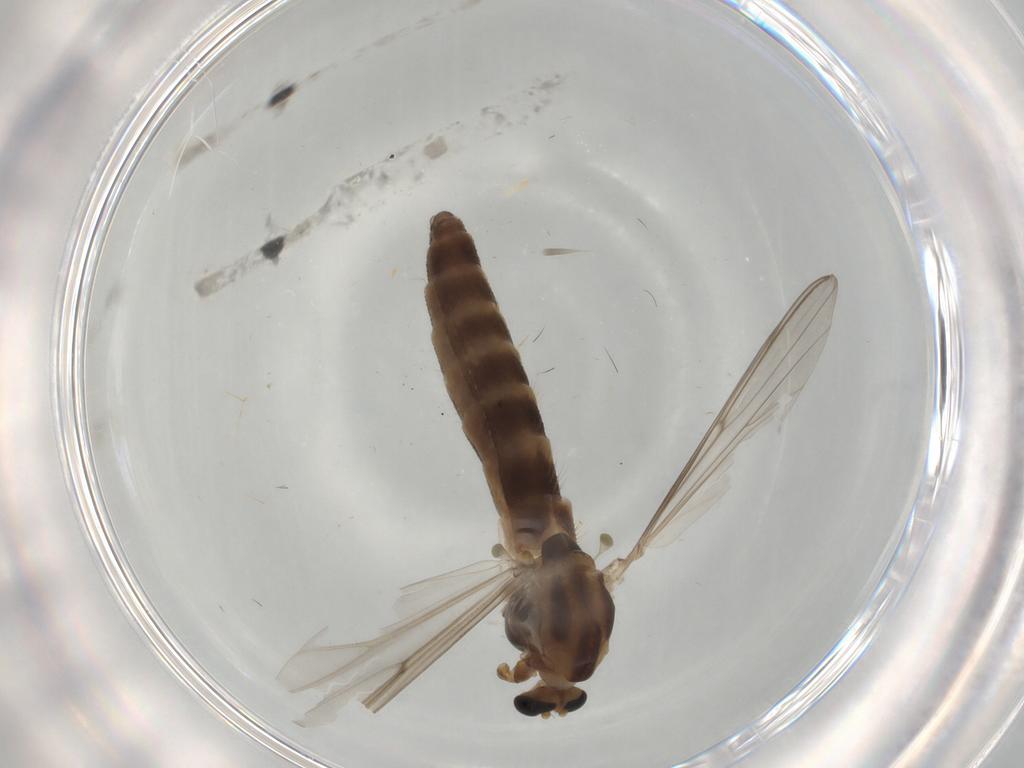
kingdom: Animalia
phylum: Arthropoda
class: Insecta
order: Diptera
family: Chironomidae
